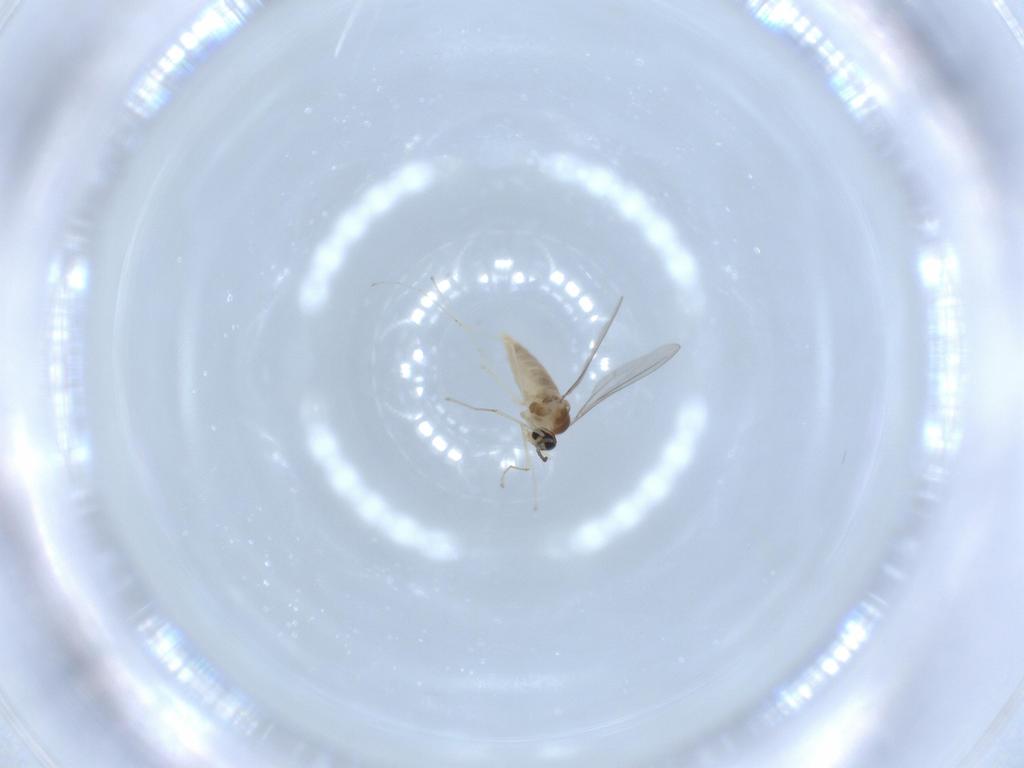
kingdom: Animalia
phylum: Arthropoda
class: Insecta
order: Diptera
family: Cecidomyiidae
